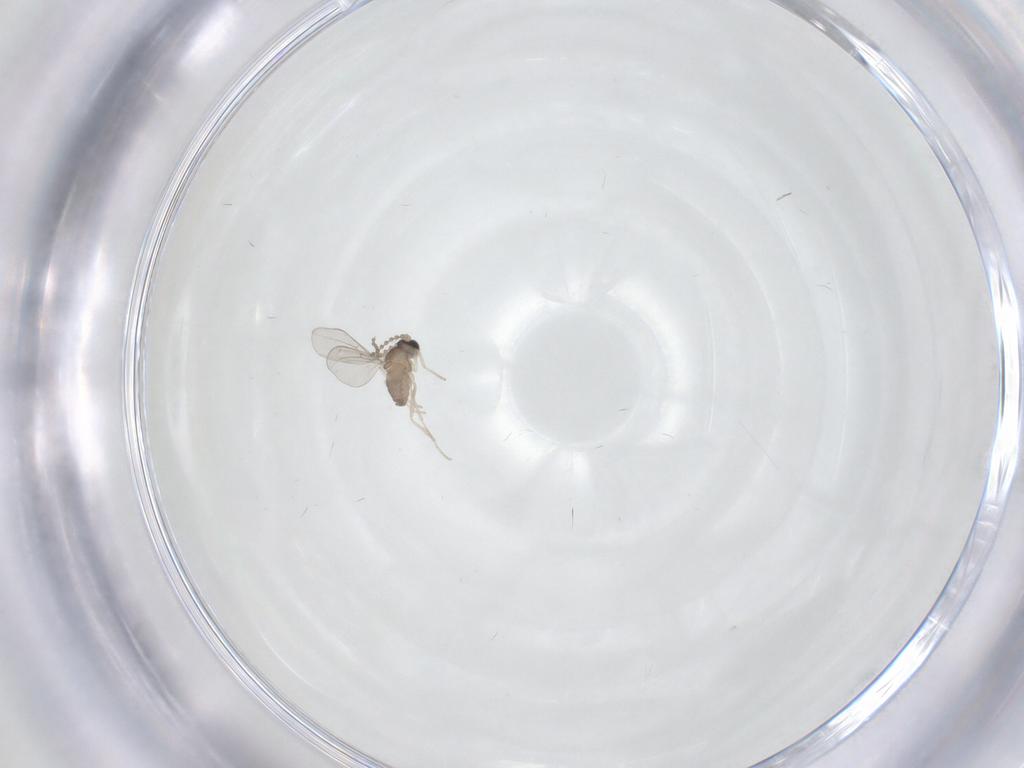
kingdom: Animalia
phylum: Arthropoda
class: Insecta
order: Diptera
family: Cecidomyiidae
